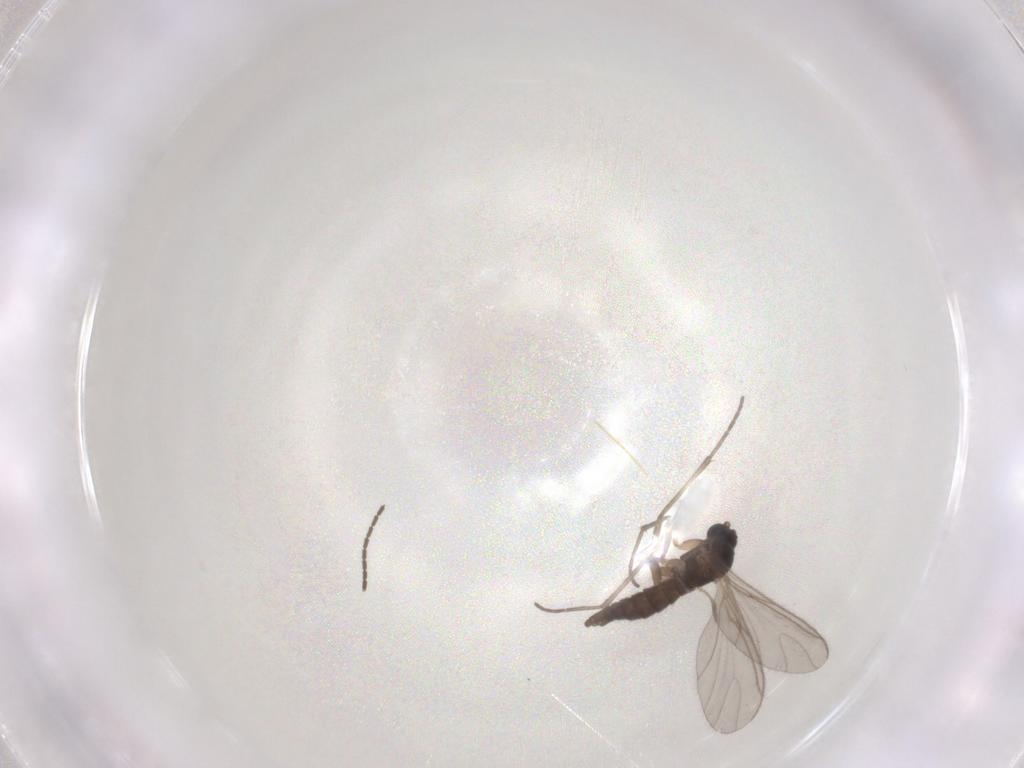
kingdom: Animalia
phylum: Arthropoda
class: Insecta
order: Diptera
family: Sciaridae
